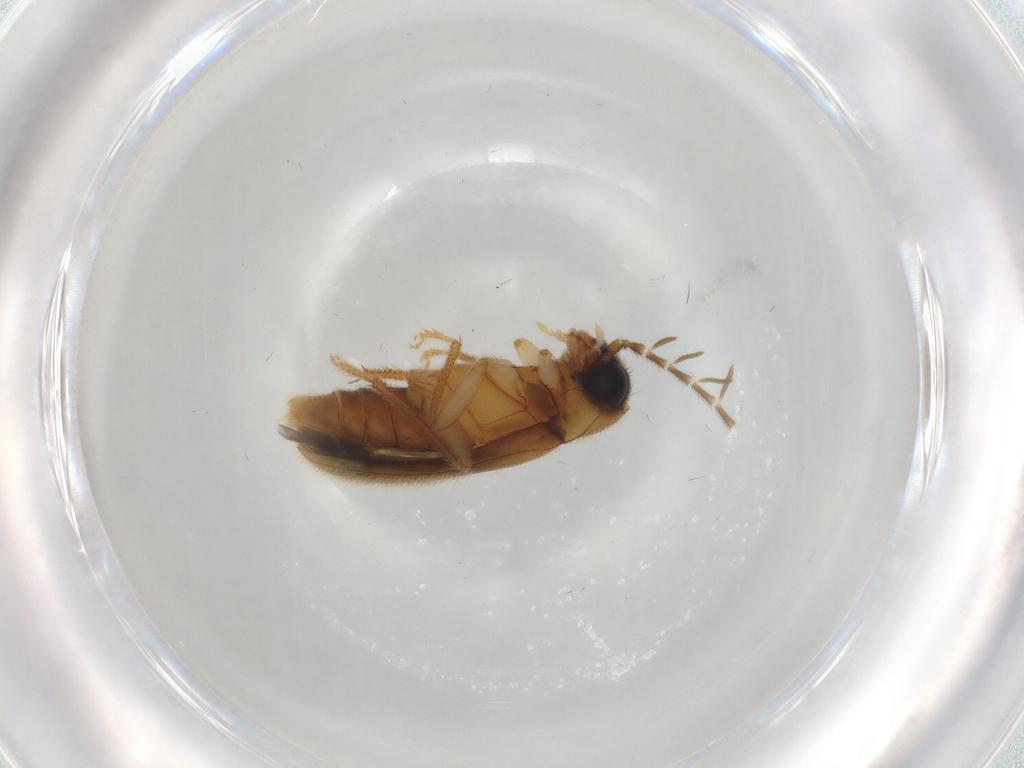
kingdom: Animalia
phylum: Arthropoda
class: Insecta
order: Coleoptera
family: Ptilodactylidae
